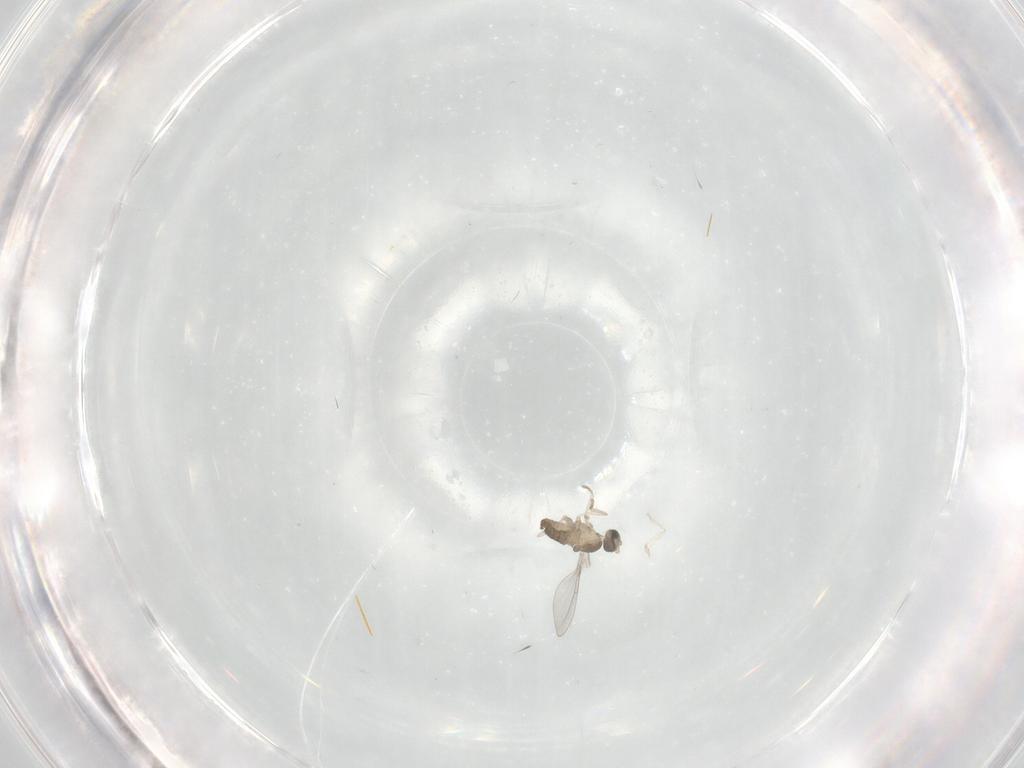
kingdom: Animalia
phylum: Arthropoda
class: Insecta
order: Diptera
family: Cecidomyiidae
